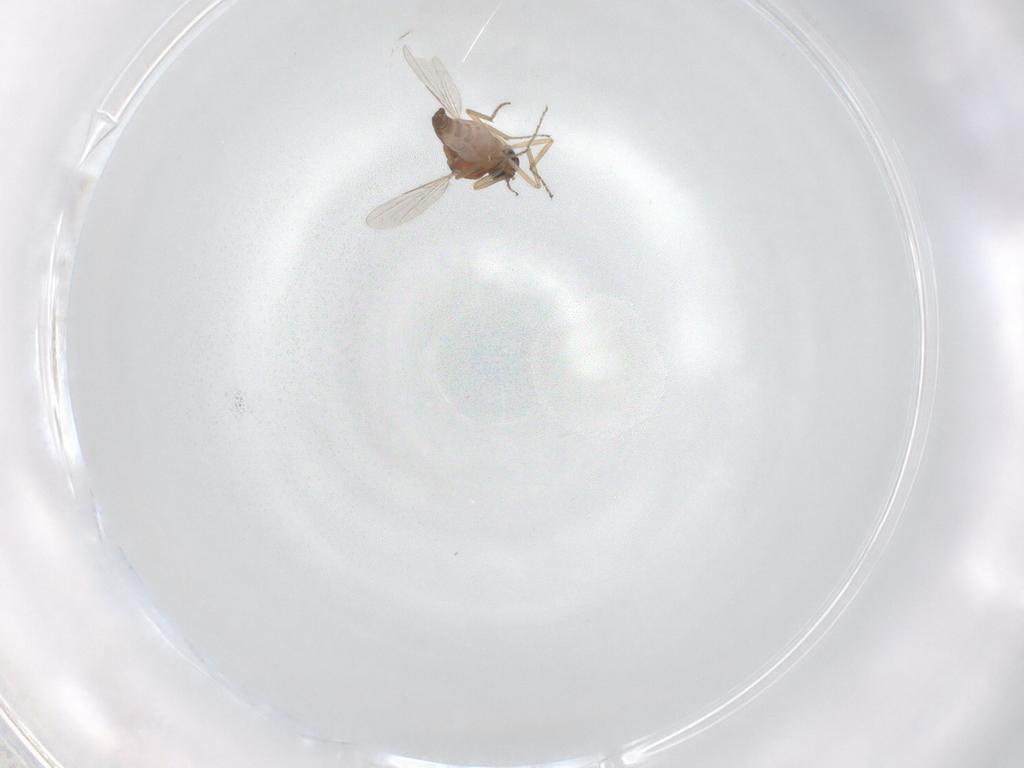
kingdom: Animalia
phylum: Arthropoda
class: Insecta
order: Diptera
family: Ceratopogonidae
